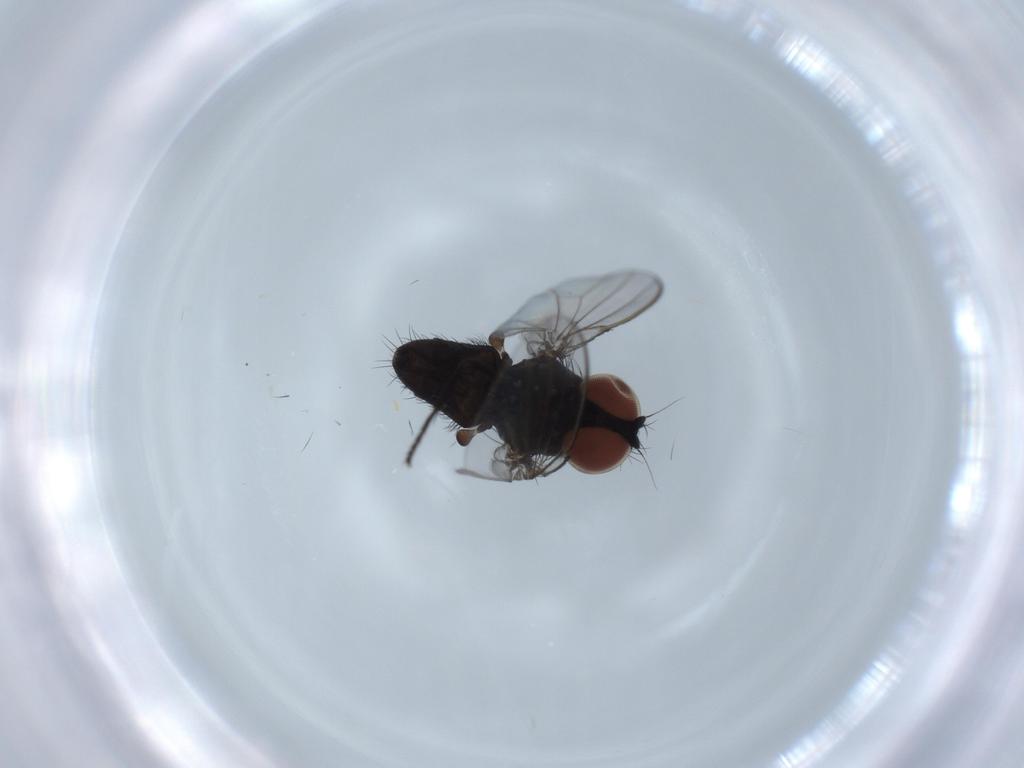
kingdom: Animalia
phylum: Arthropoda
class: Insecta
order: Diptera
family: Milichiidae
